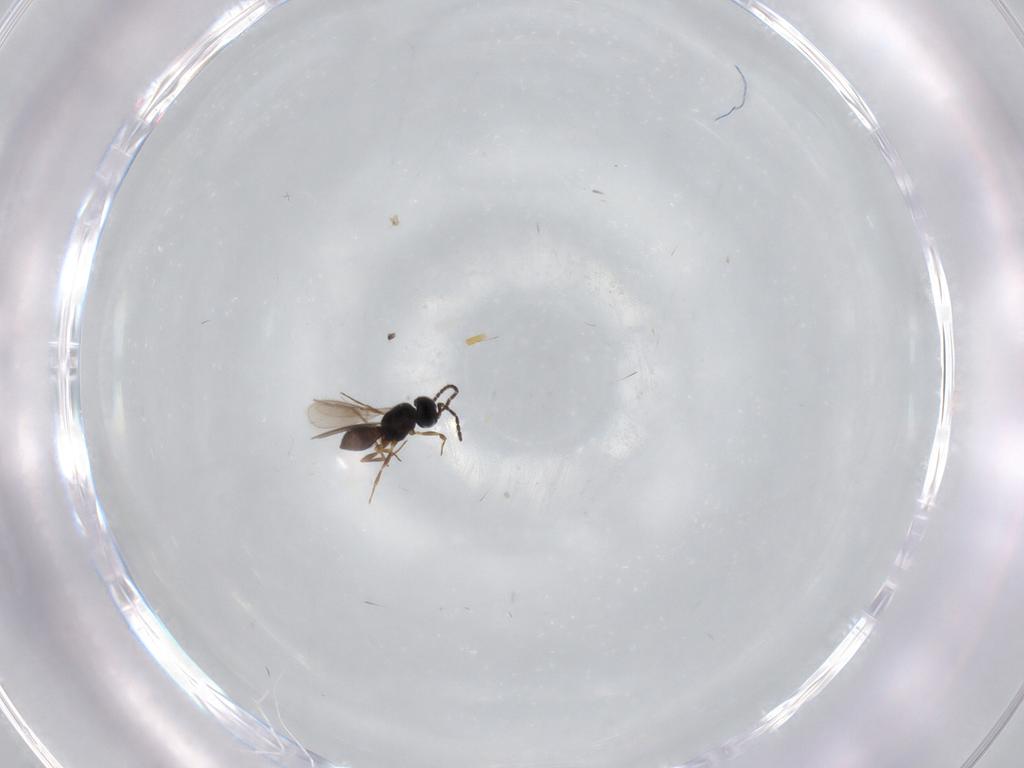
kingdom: Animalia
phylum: Arthropoda
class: Insecta
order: Hymenoptera
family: Scelionidae
